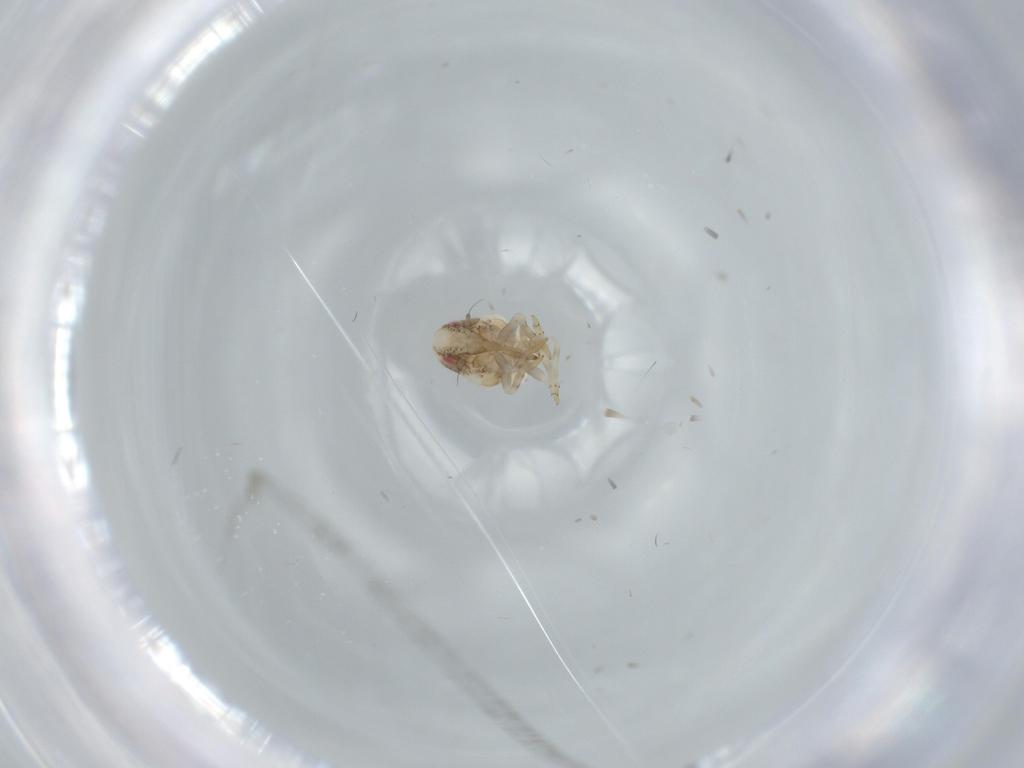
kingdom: Animalia
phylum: Arthropoda
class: Insecta
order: Hemiptera
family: Acanaloniidae
